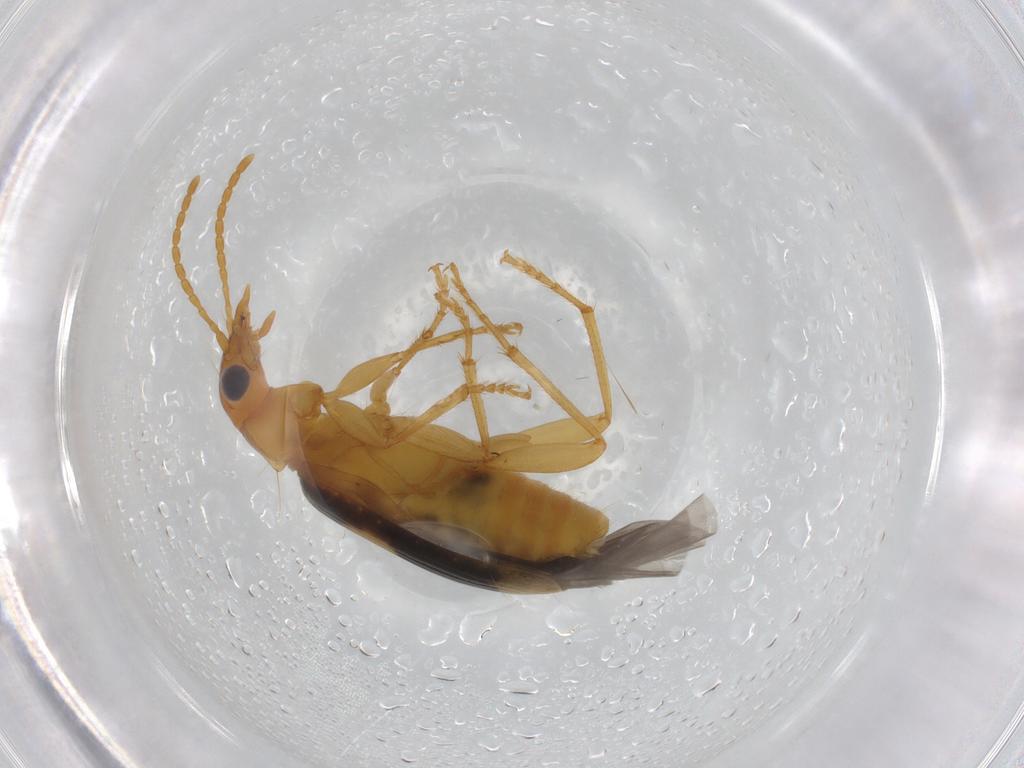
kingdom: Animalia
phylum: Arthropoda
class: Insecta
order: Coleoptera
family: Carabidae
